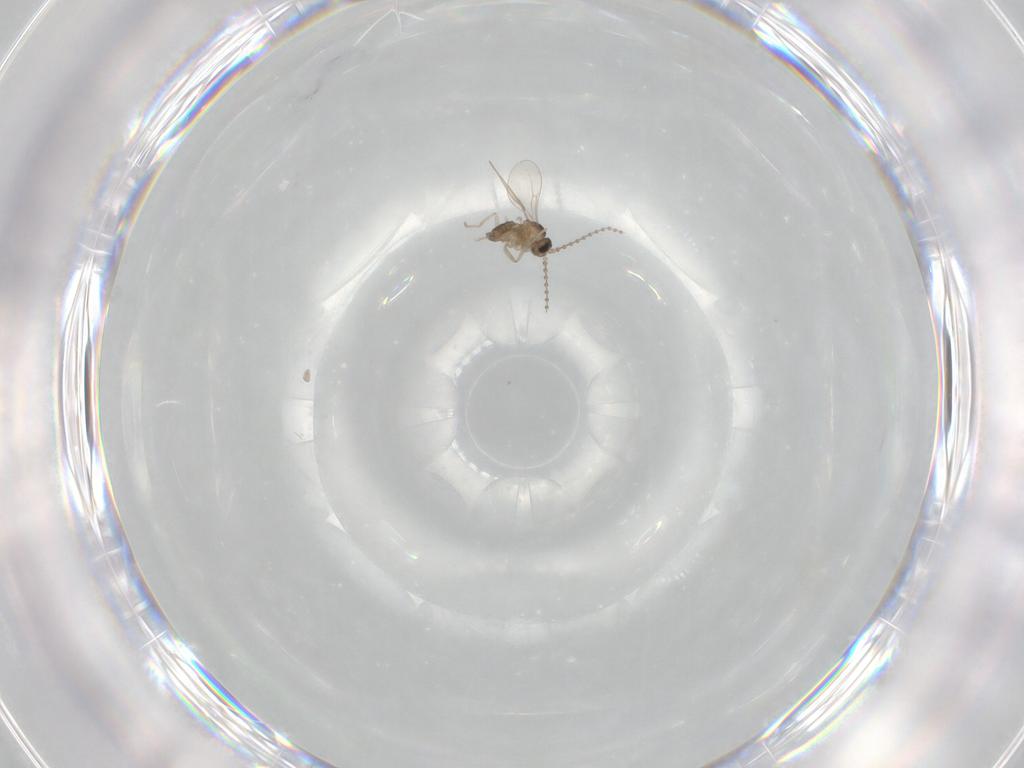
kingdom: Animalia
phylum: Arthropoda
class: Insecta
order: Diptera
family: Cecidomyiidae
